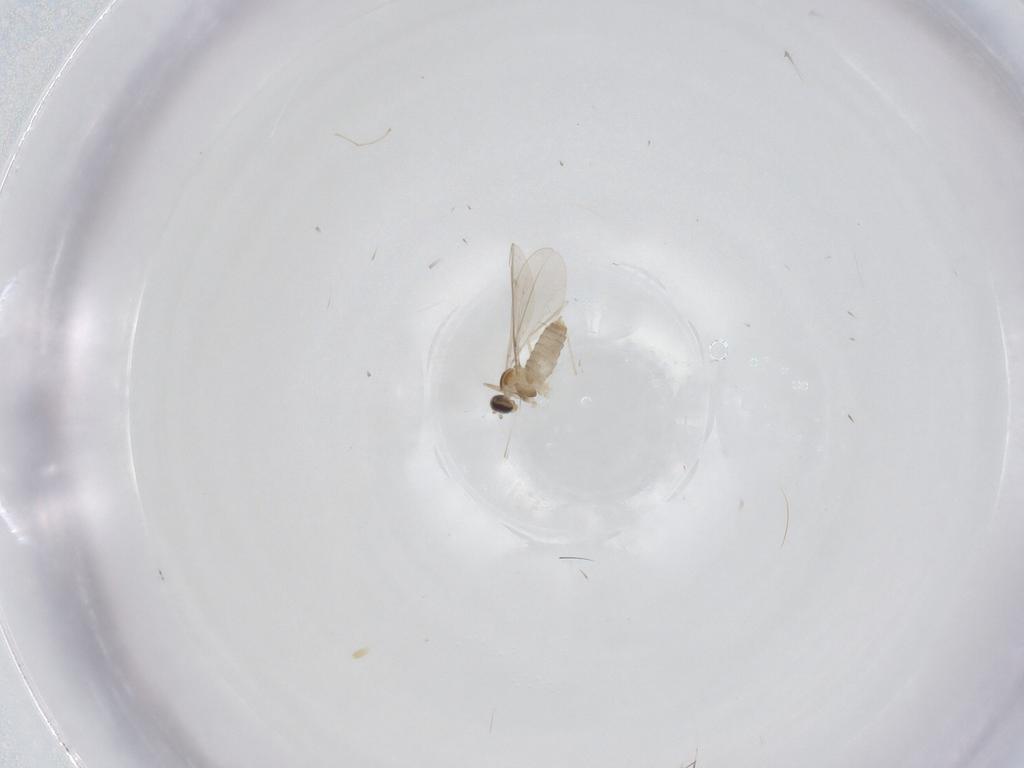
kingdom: Animalia
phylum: Arthropoda
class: Insecta
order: Diptera
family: Cecidomyiidae
